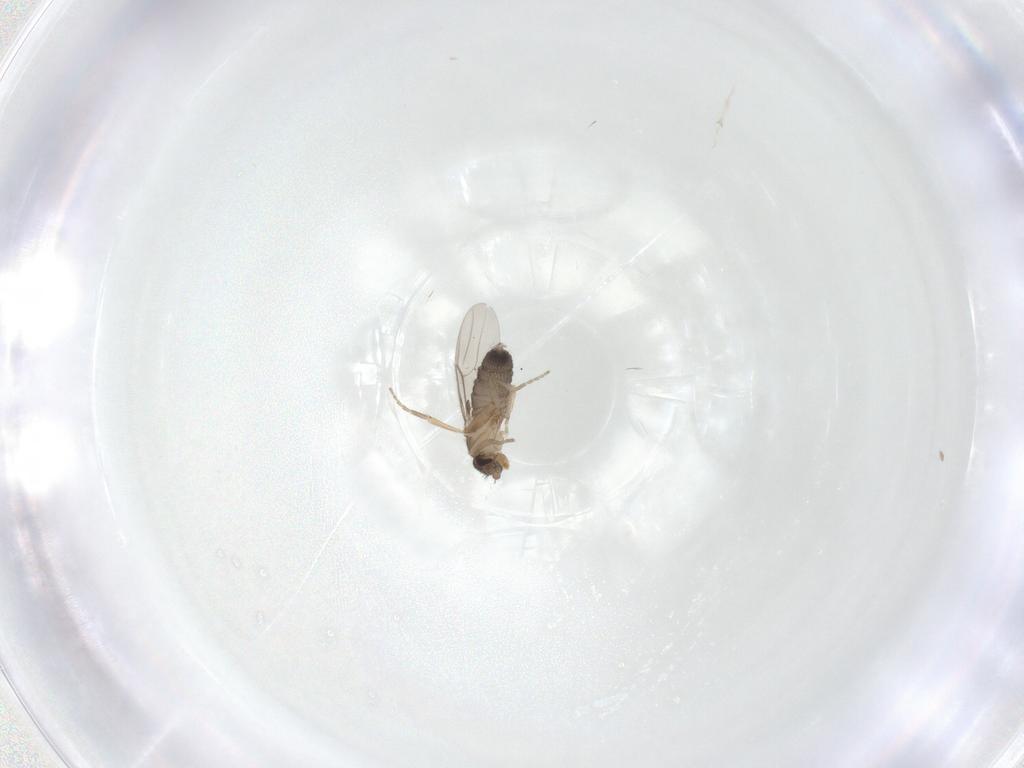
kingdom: Animalia
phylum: Arthropoda
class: Insecta
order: Diptera
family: Phoridae
